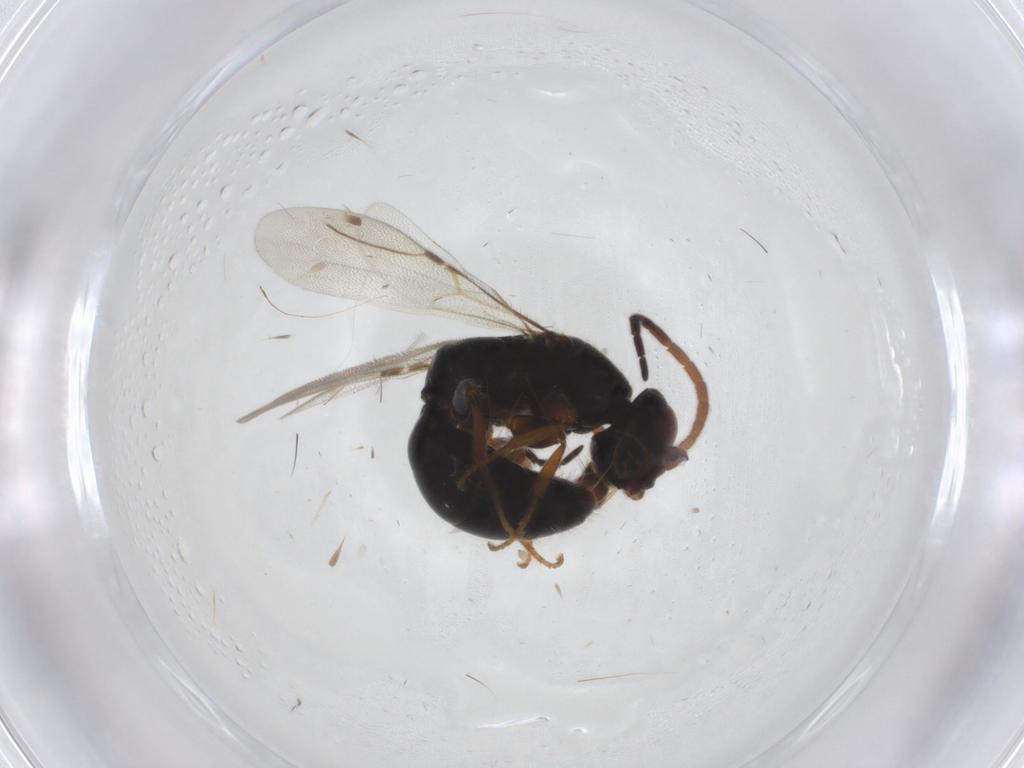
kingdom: Animalia
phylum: Arthropoda
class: Insecta
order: Hymenoptera
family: Bethylidae
